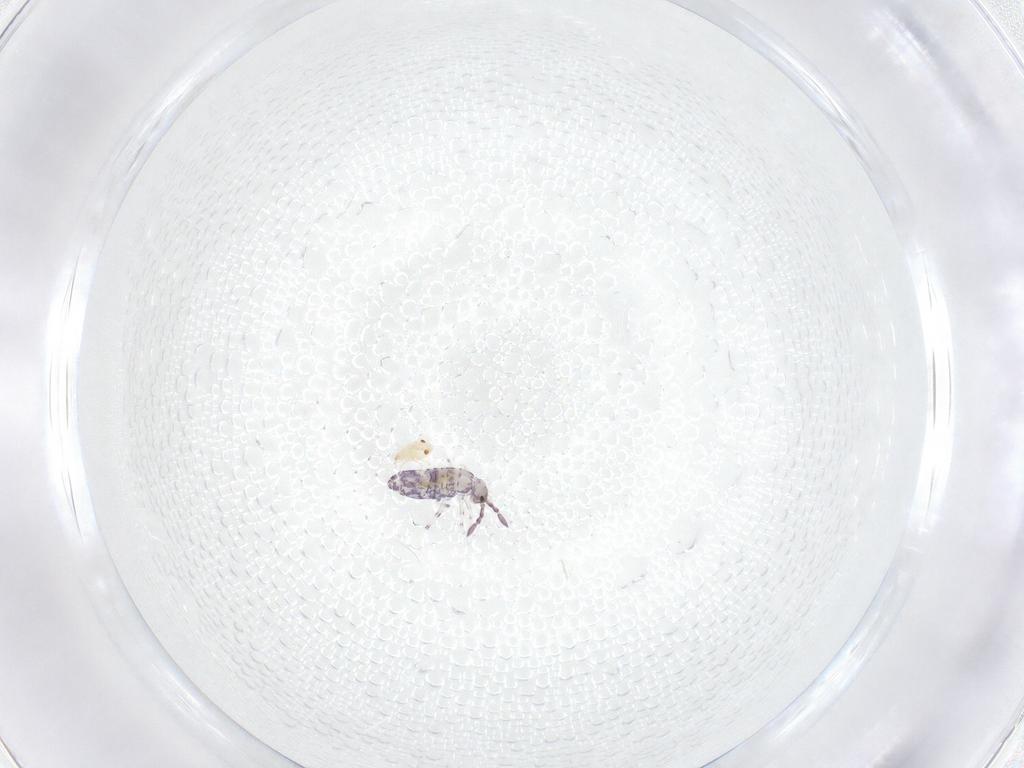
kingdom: Animalia
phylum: Arthropoda
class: Collembola
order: Entomobryomorpha
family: Entomobryidae
